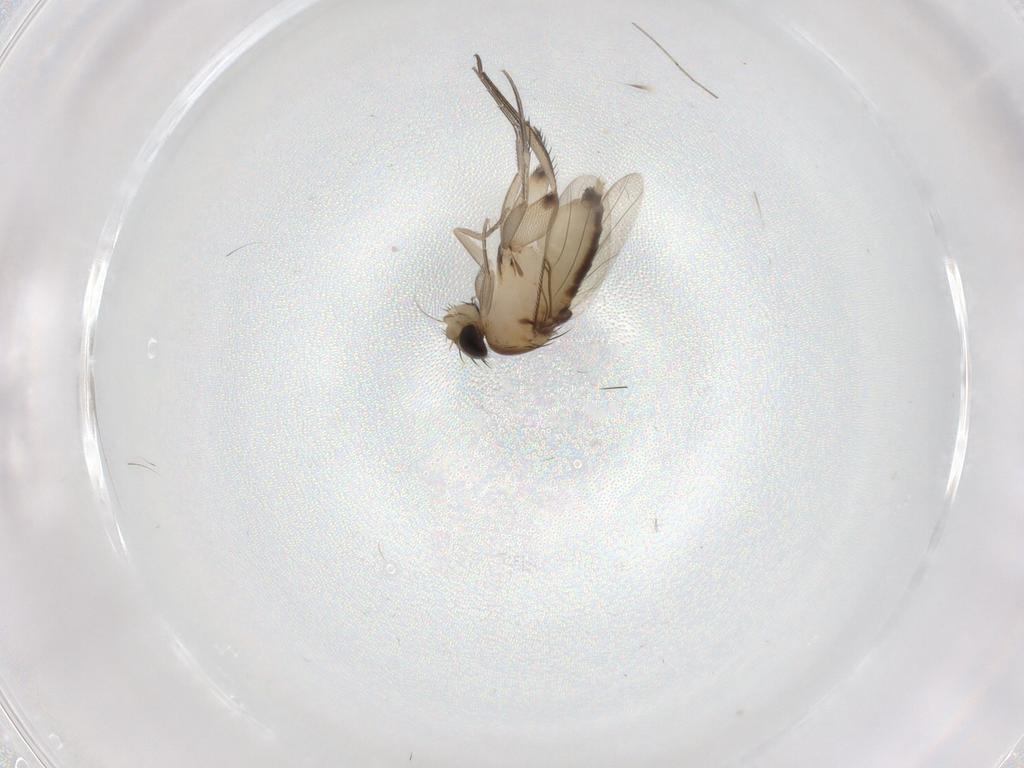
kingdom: Animalia
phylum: Arthropoda
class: Insecta
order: Diptera
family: Phoridae
